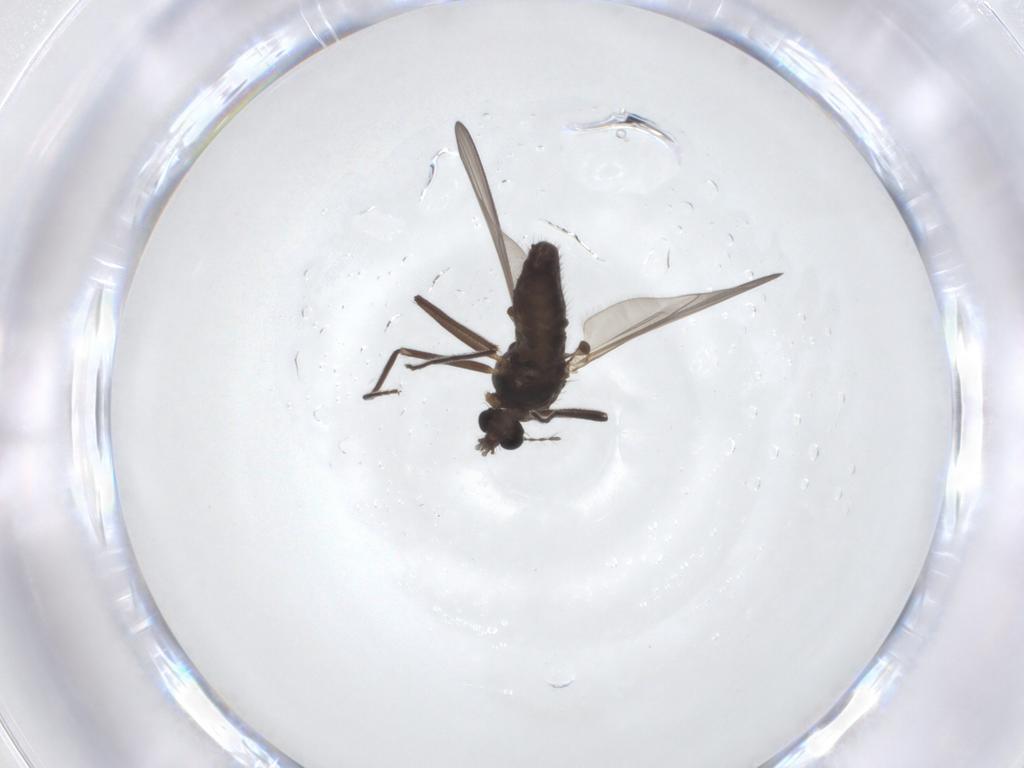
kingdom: Animalia
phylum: Arthropoda
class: Insecta
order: Diptera
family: Chironomidae
